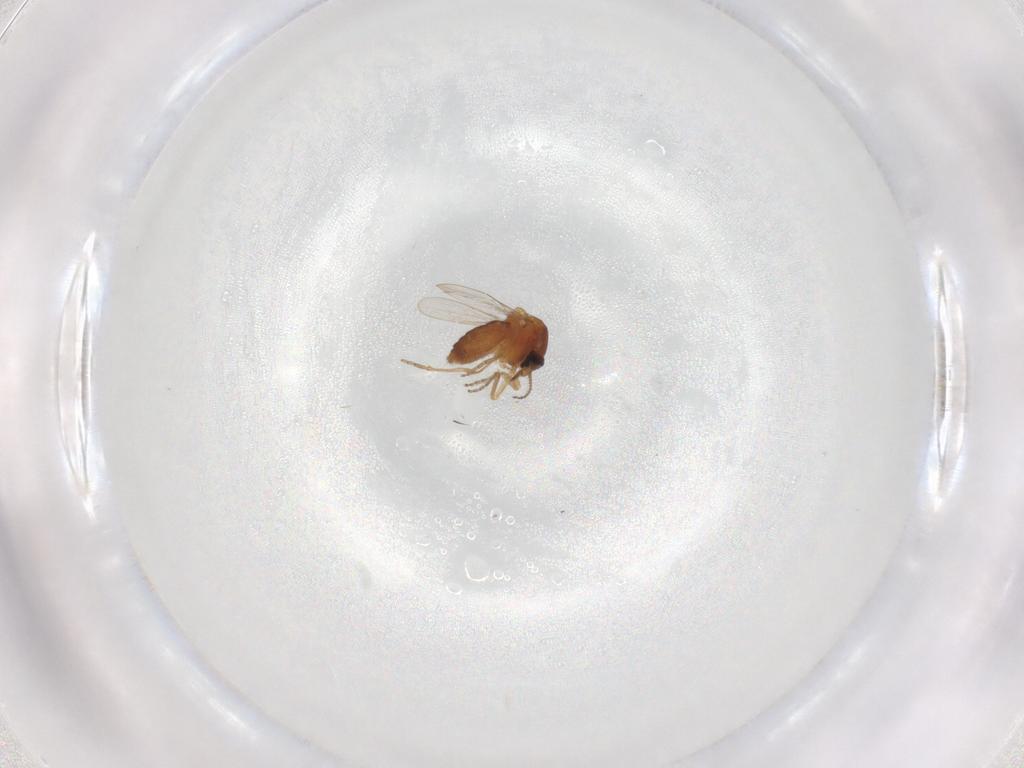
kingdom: Animalia
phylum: Arthropoda
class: Insecta
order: Diptera
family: Ceratopogonidae
